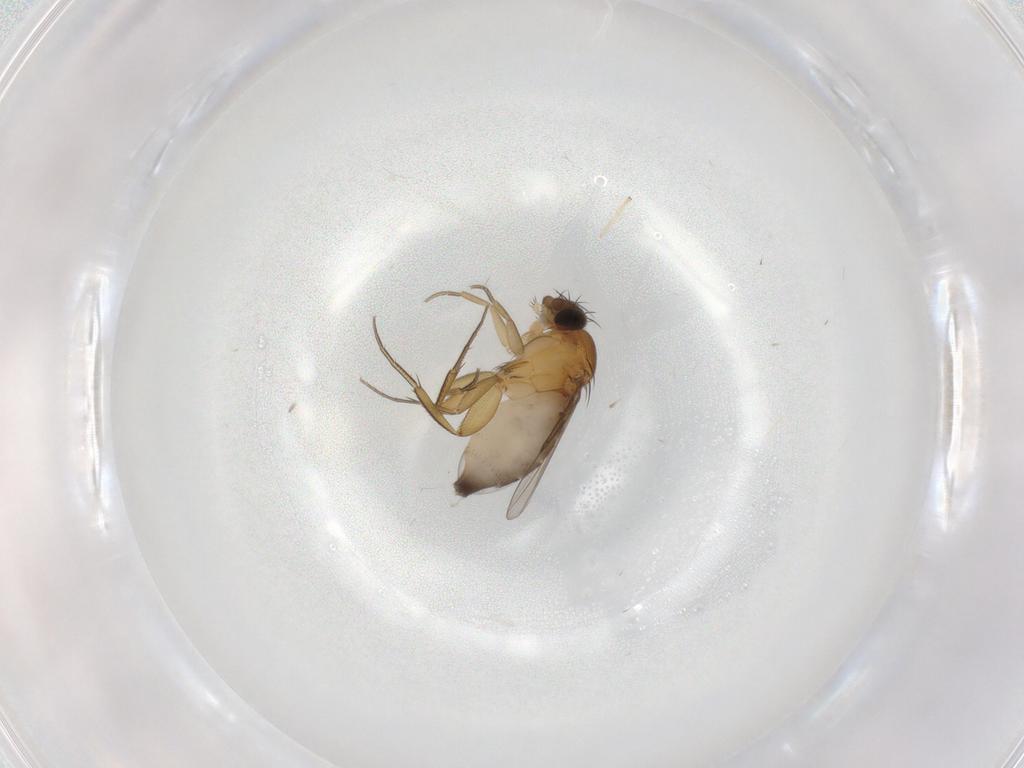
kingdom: Animalia
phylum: Arthropoda
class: Insecta
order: Diptera
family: Phoridae
